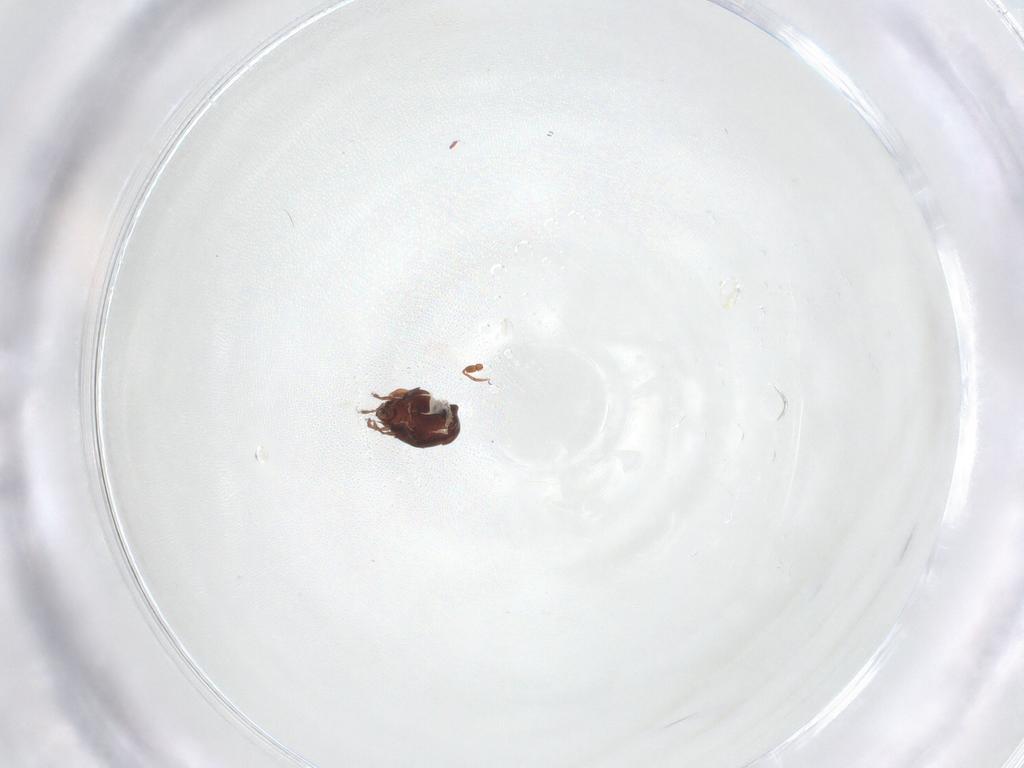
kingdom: Animalia
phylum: Arthropoda
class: Arachnida
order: Sarcoptiformes
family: Ceratozetidae
